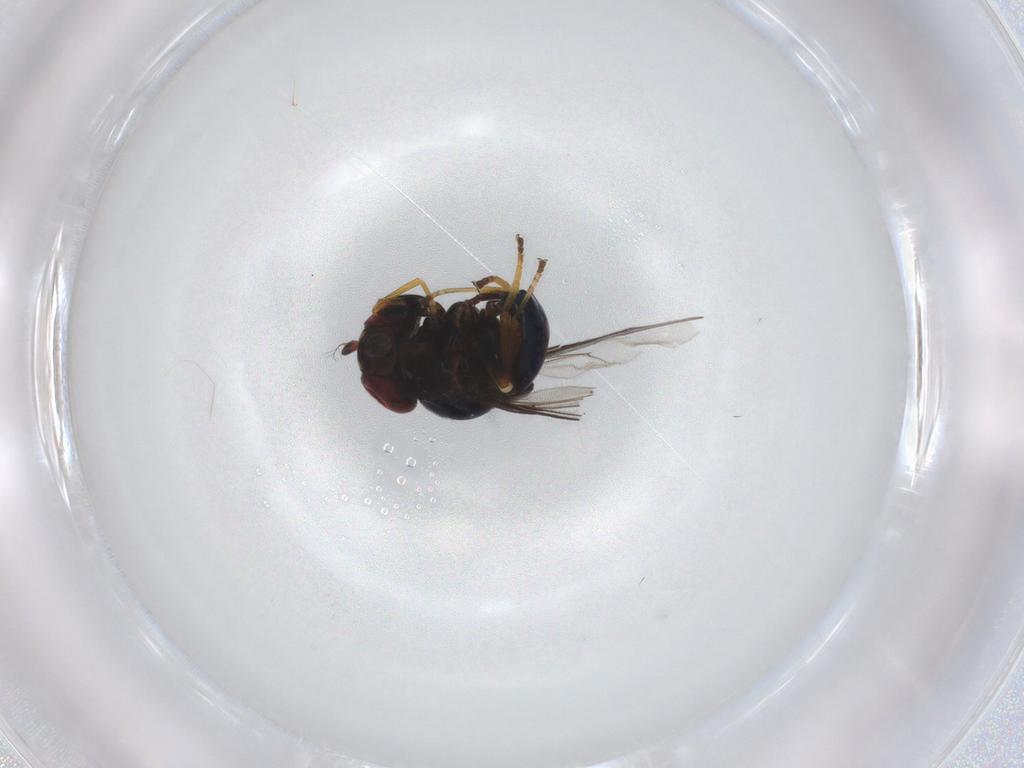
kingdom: Animalia
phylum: Arthropoda
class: Insecta
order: Diptera
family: Chloropidae
